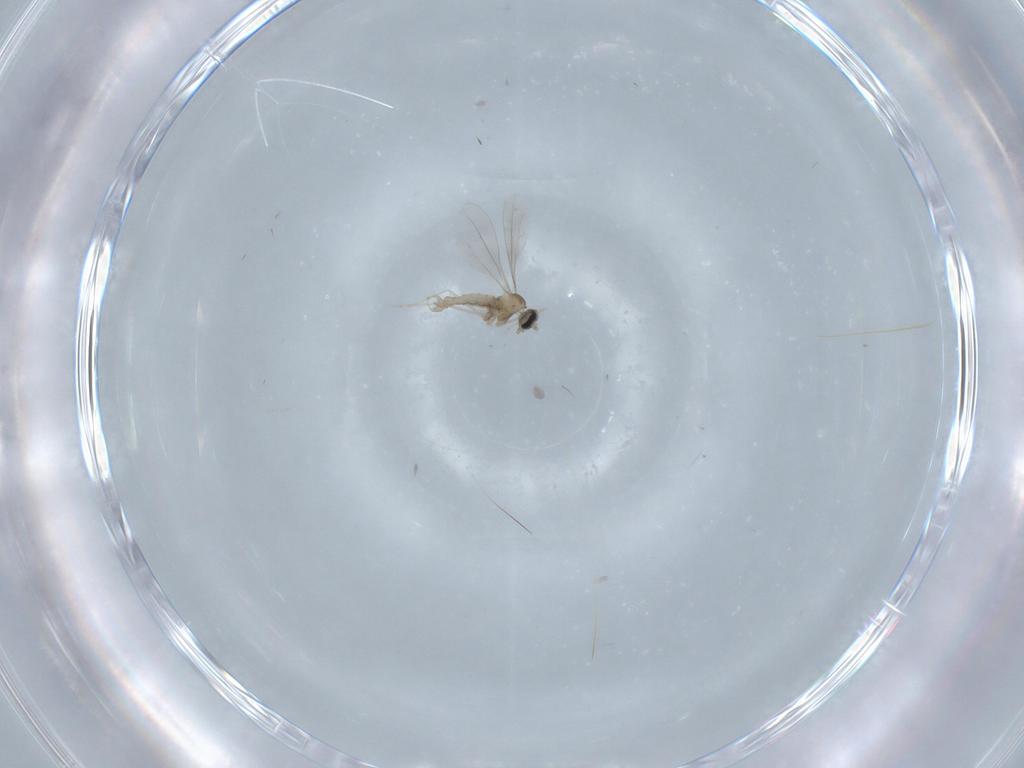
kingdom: Animalia
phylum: Arthropoda
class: Insecta
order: Diptera
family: Cecidomyiidae
